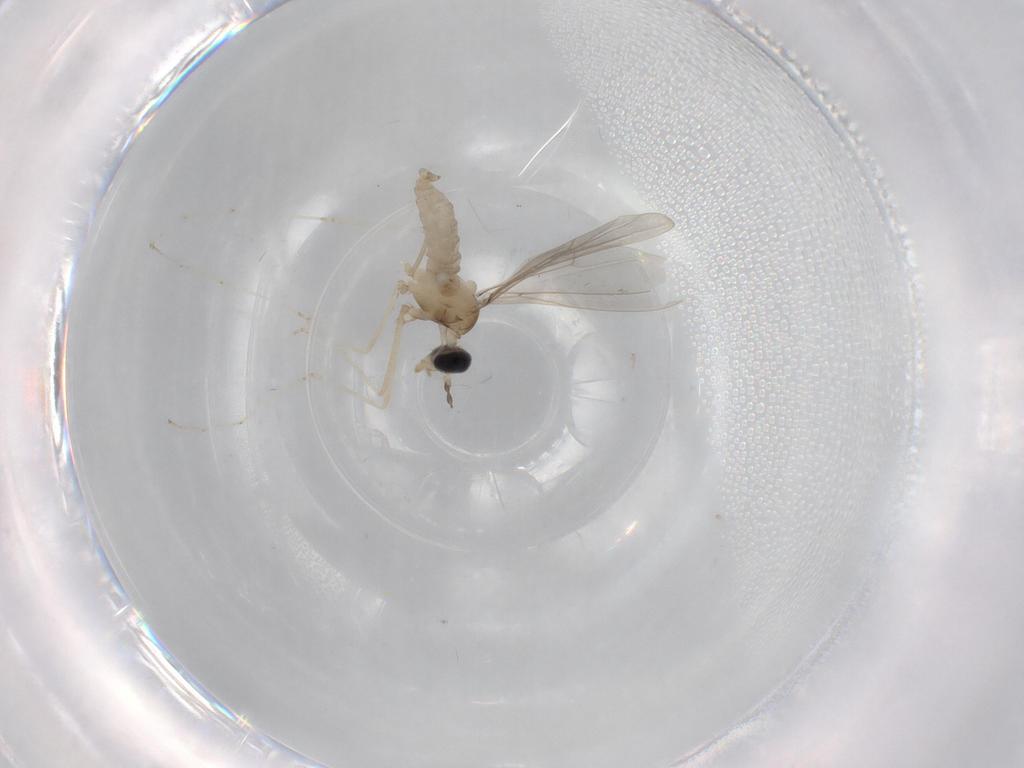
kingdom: Animalia
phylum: Arthropoda
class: Insecta
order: Diptera
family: Cecidomyiidae
